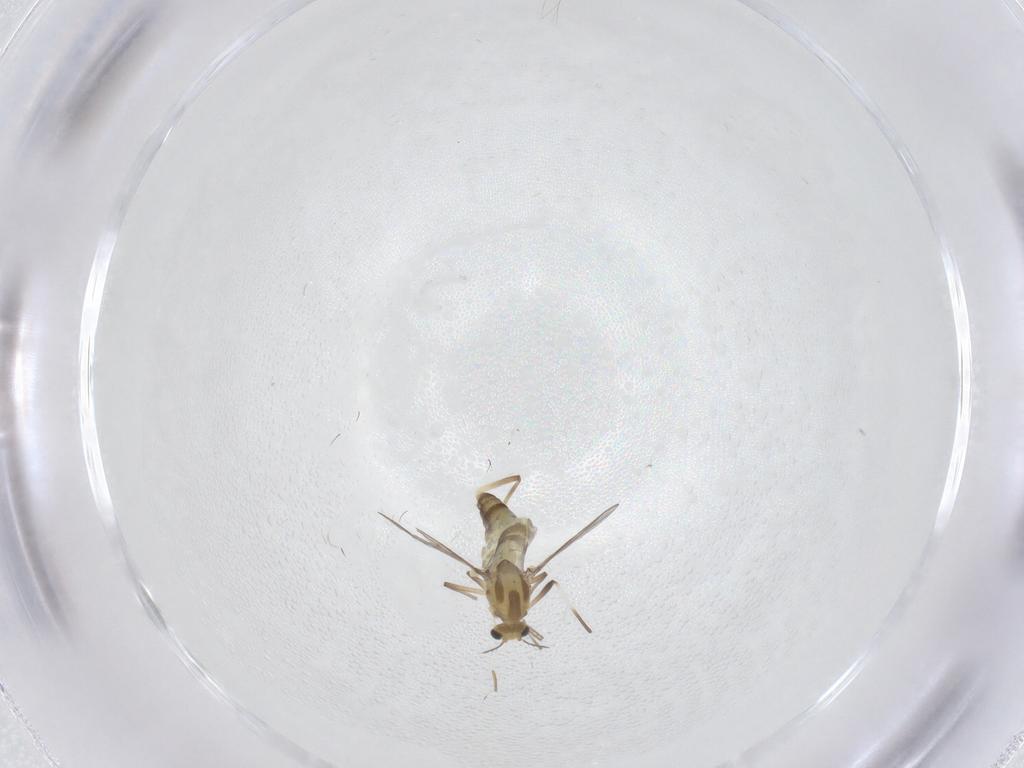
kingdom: Animalia
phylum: Arthropoda
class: Insecta
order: Diptera
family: Chironomidae
